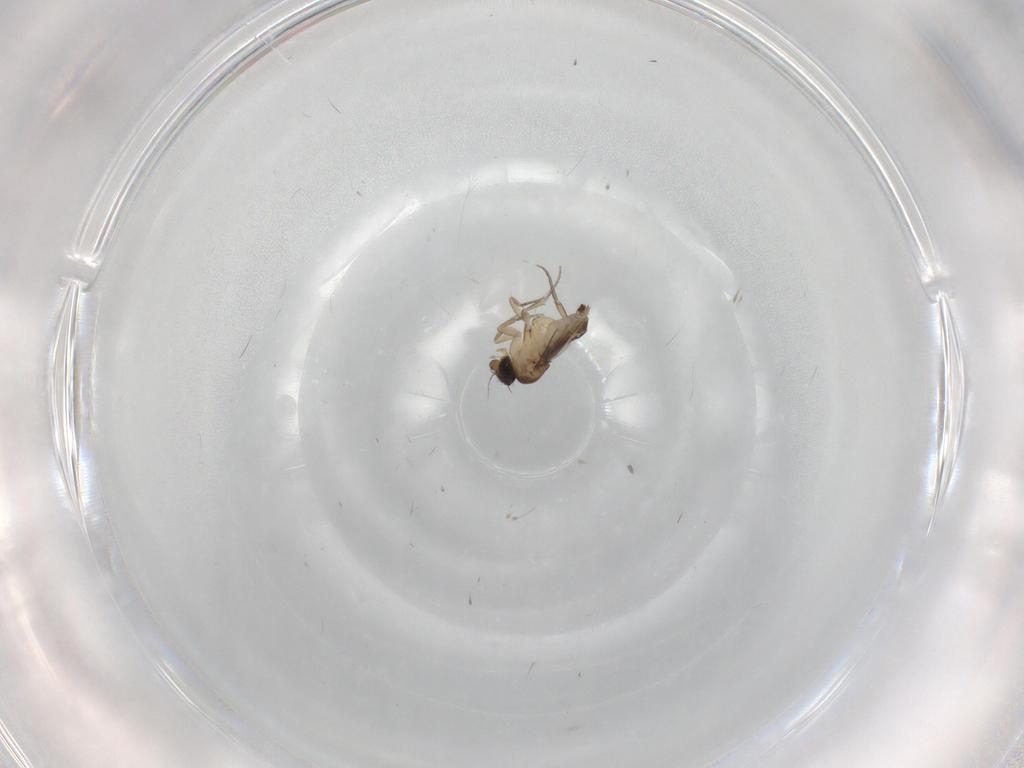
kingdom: Animalia
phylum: Arthropoda
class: Insecta
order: Diptera
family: Phoridae
